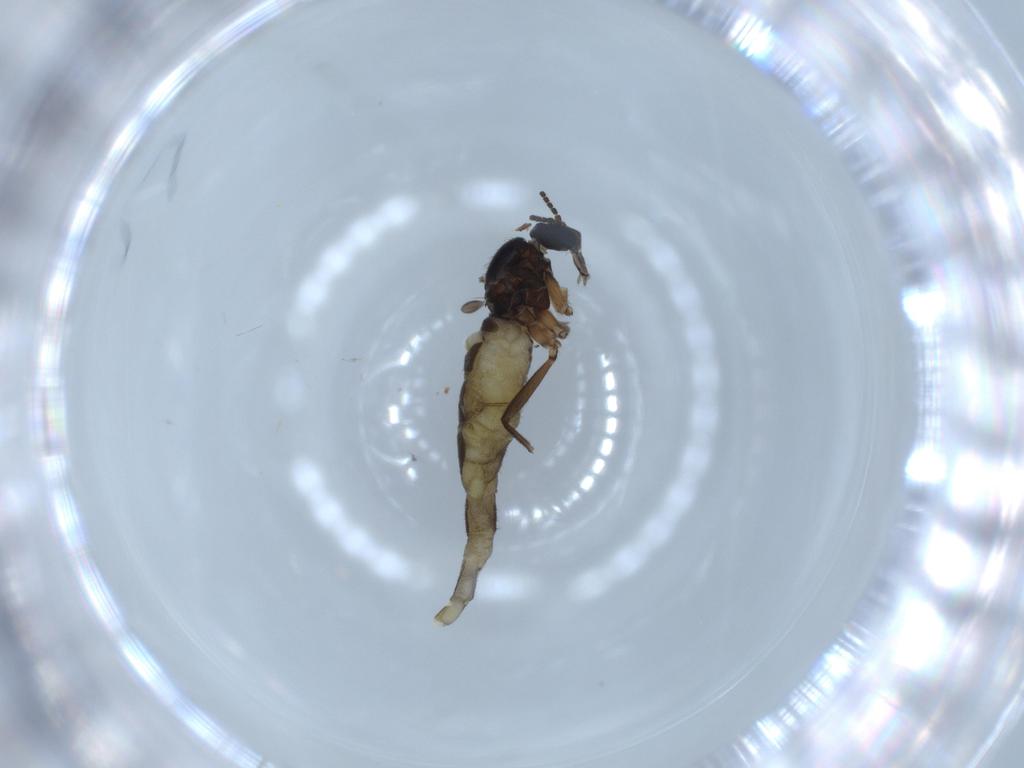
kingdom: Animalia
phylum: Arthropoda
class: Insecta
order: Diptera
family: Sciaridae
